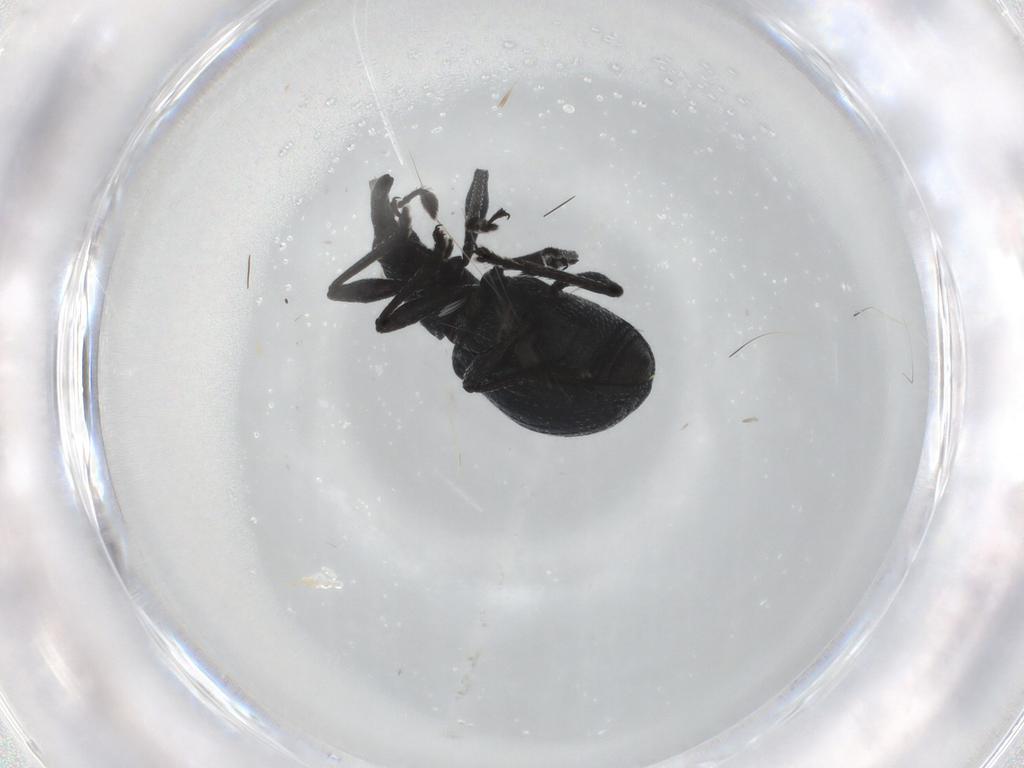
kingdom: Animalia
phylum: Arthropoda
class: Insecta
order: Coleoptera
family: Brentidae
